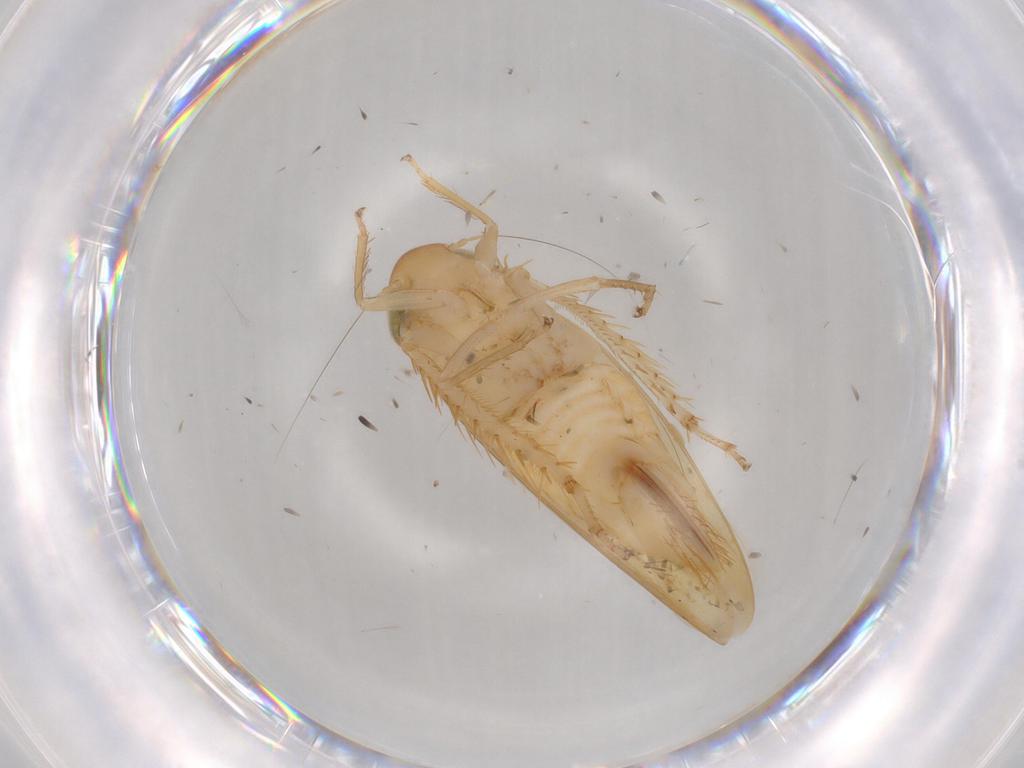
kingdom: Animalia
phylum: Arthropoda
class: Insecta
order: Hemiptera
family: Cicadellidae
